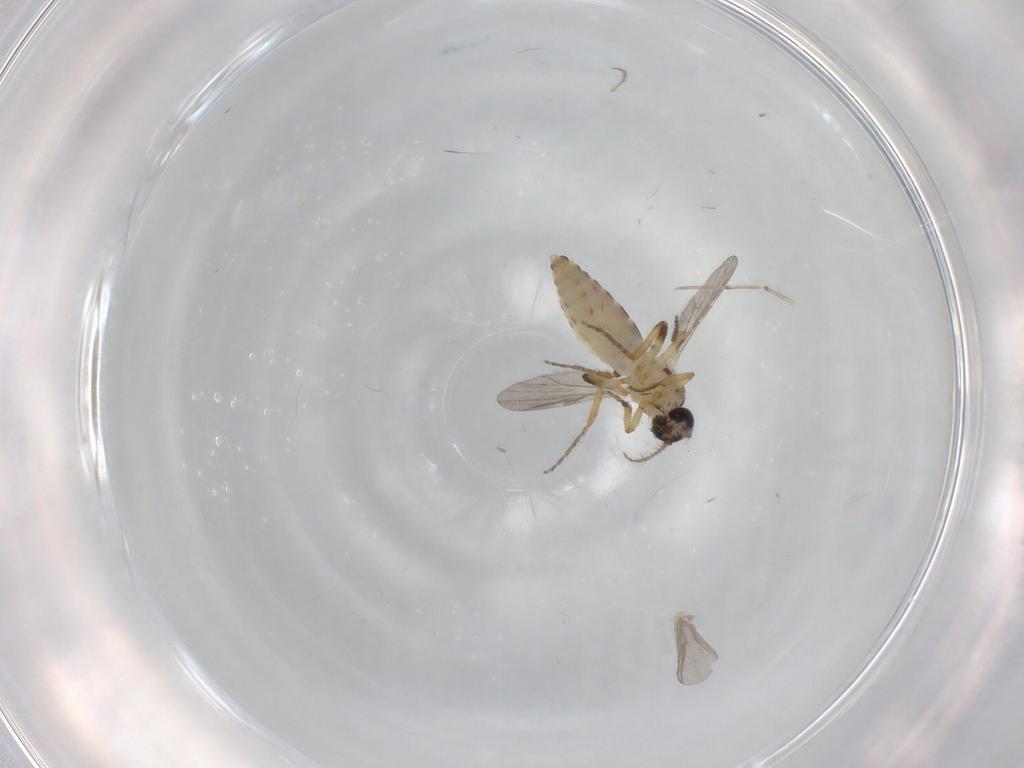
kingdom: Animalia
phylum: Arthropoda
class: Insecta
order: Diptera
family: Ceratopogonidae
